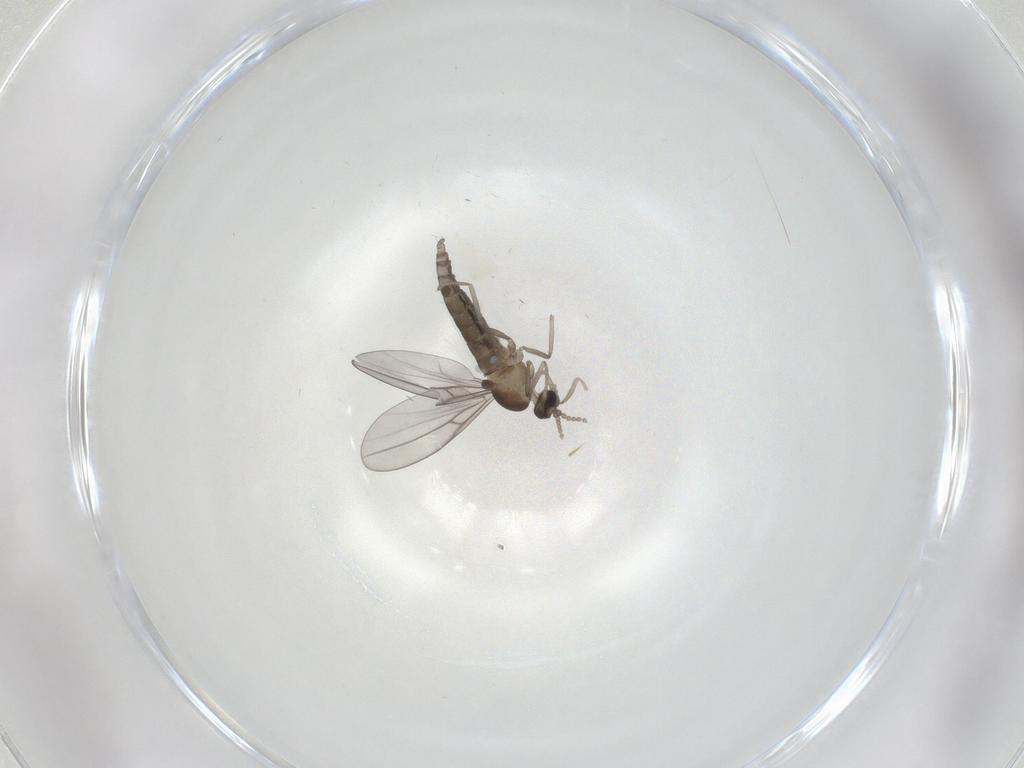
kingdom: Animalia
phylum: Arthropoda
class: Insecta
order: Diptera
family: Cecidomyiidae
